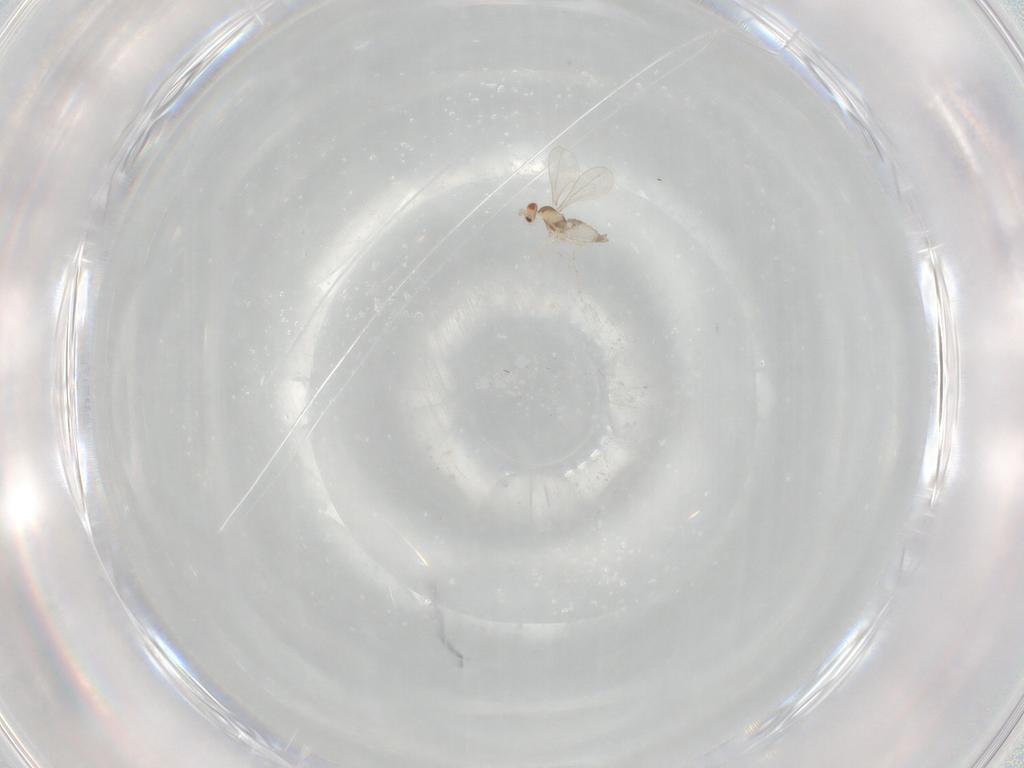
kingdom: Animalia
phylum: Arthropoda
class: Insecta
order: Diptera
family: Cecidomyiidae
